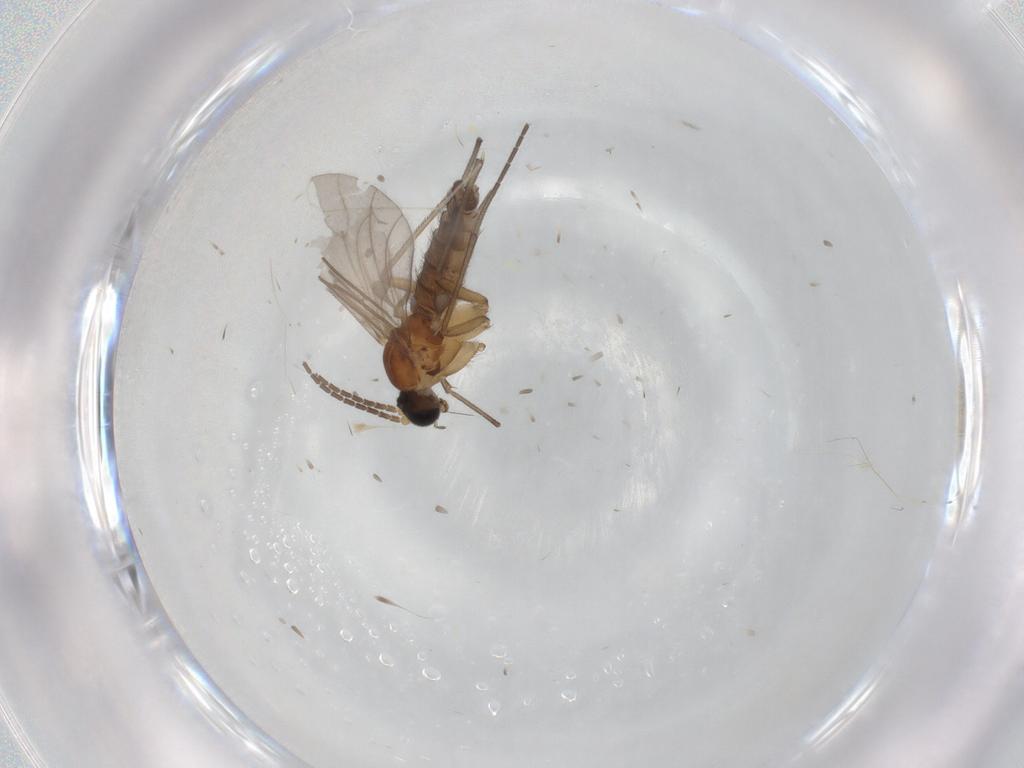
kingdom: Animalia
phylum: Arthropoda
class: Insecta
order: Diptera
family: Sciaridae
